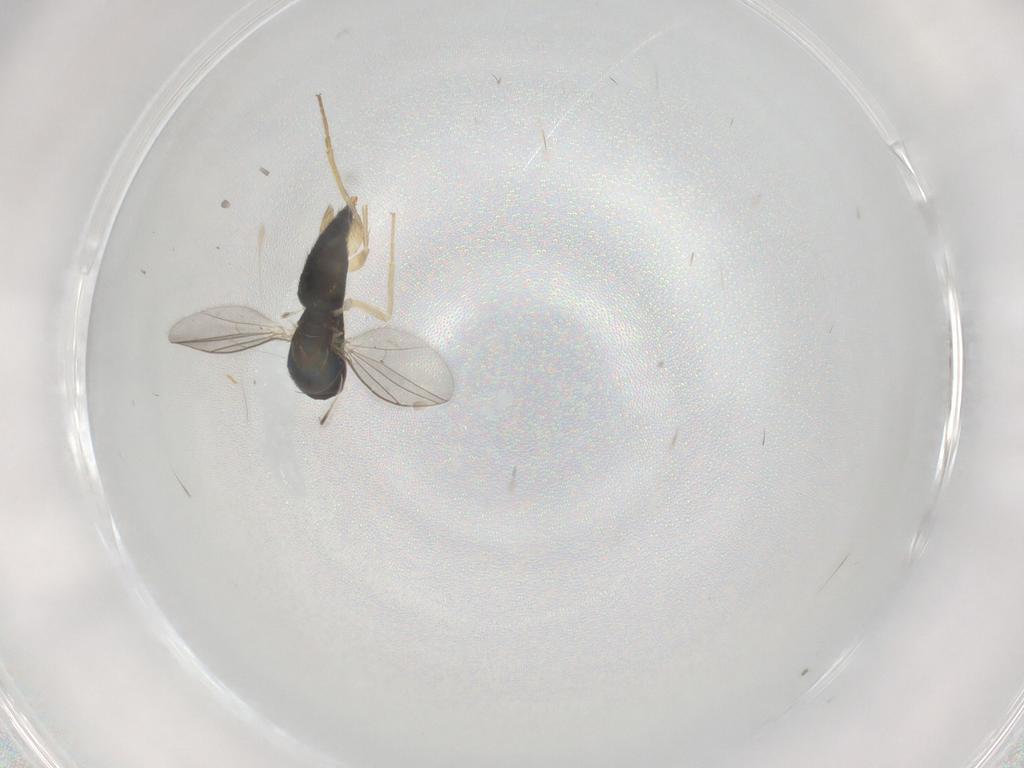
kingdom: Animalia
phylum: Arthropoda
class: Insecta
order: Diptera
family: Dolichopodidae
